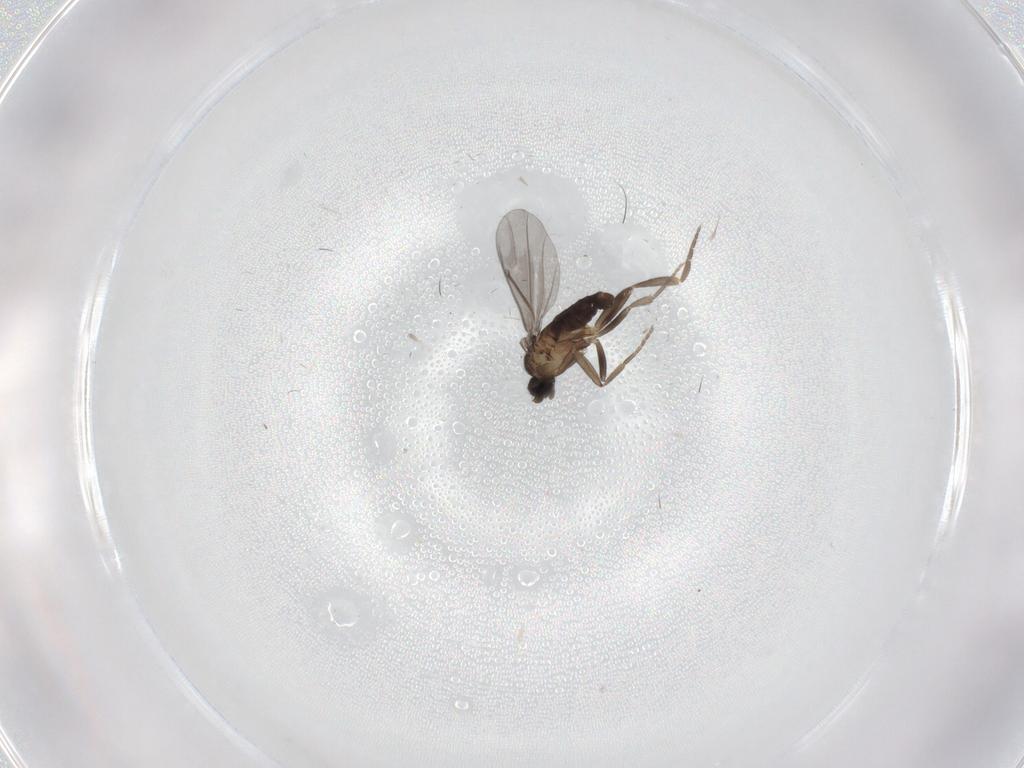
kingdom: Animalia
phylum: Arthropoda
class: Insecta
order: Diptera
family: Phoridae
